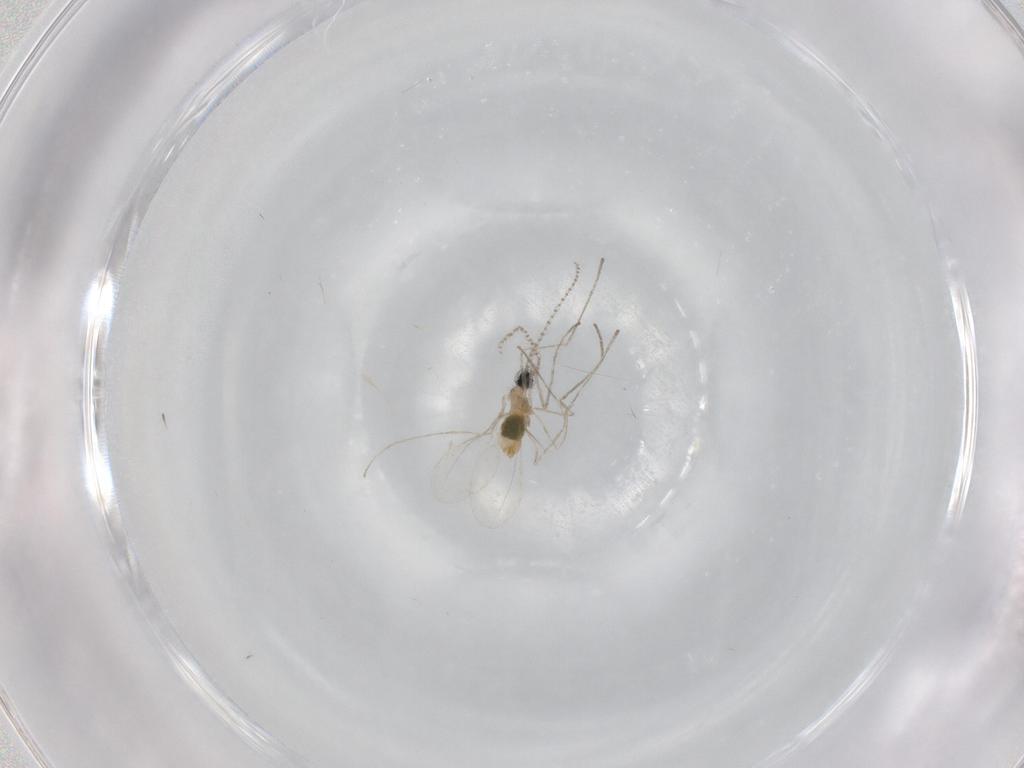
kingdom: Animalia
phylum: Arthropoda
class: Insecta
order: Diptera
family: Cecidomyiidae
